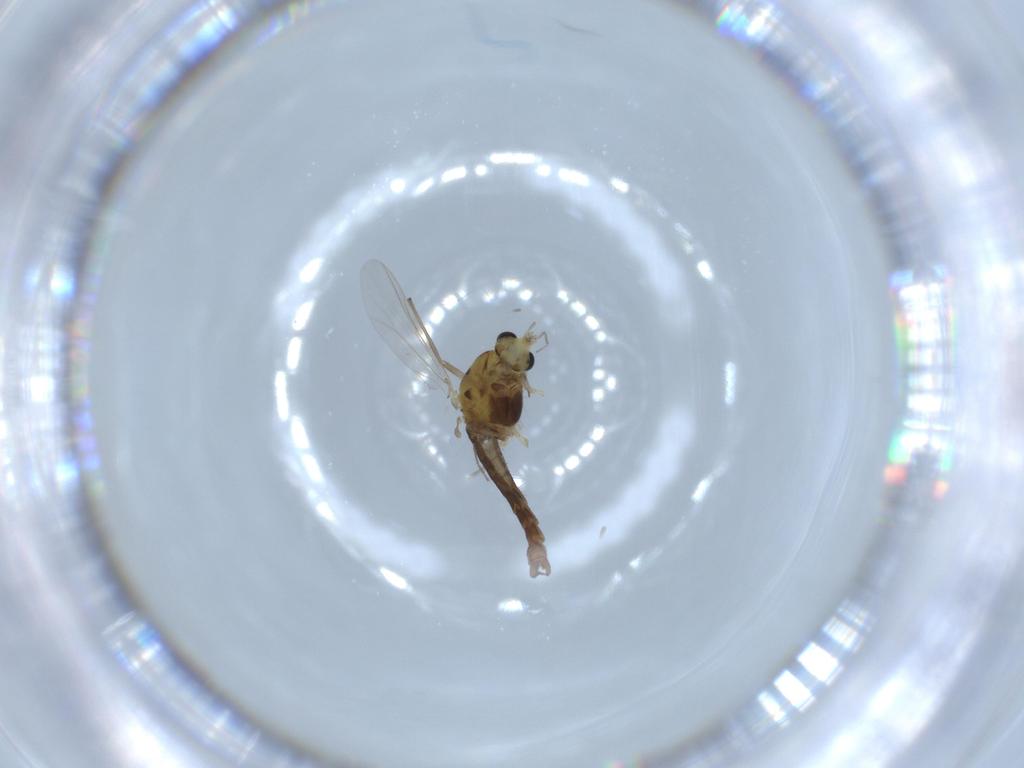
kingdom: Animalia
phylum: Arthropoda
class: Insecta
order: Diptera
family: Chironomidae
